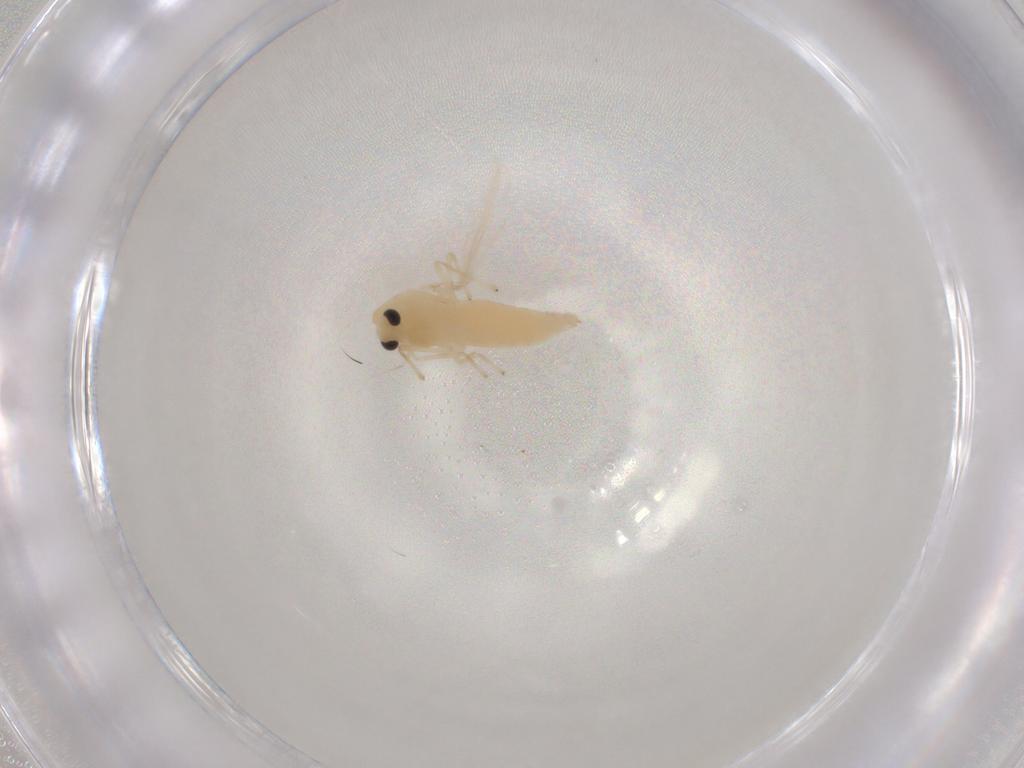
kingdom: Animalia
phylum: Arthropoda
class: Insecta
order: Diptera
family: Chironomidae
